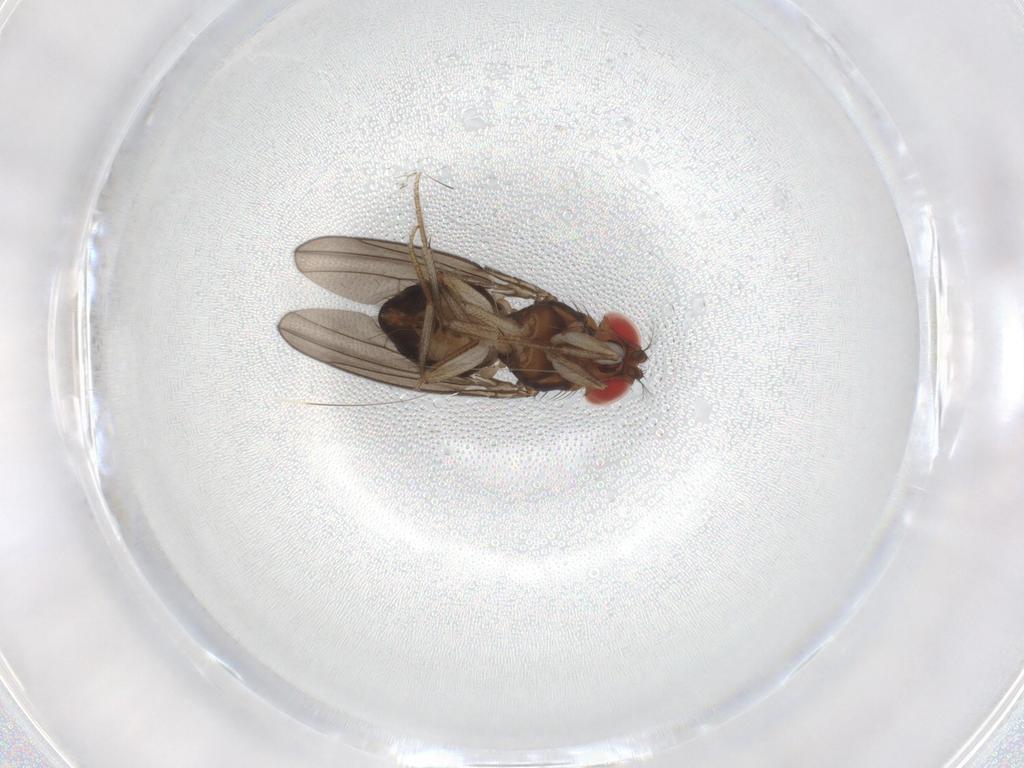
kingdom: Animalia
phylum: Arthropoda
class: Insecta
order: Diptera
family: Drosophilidae
